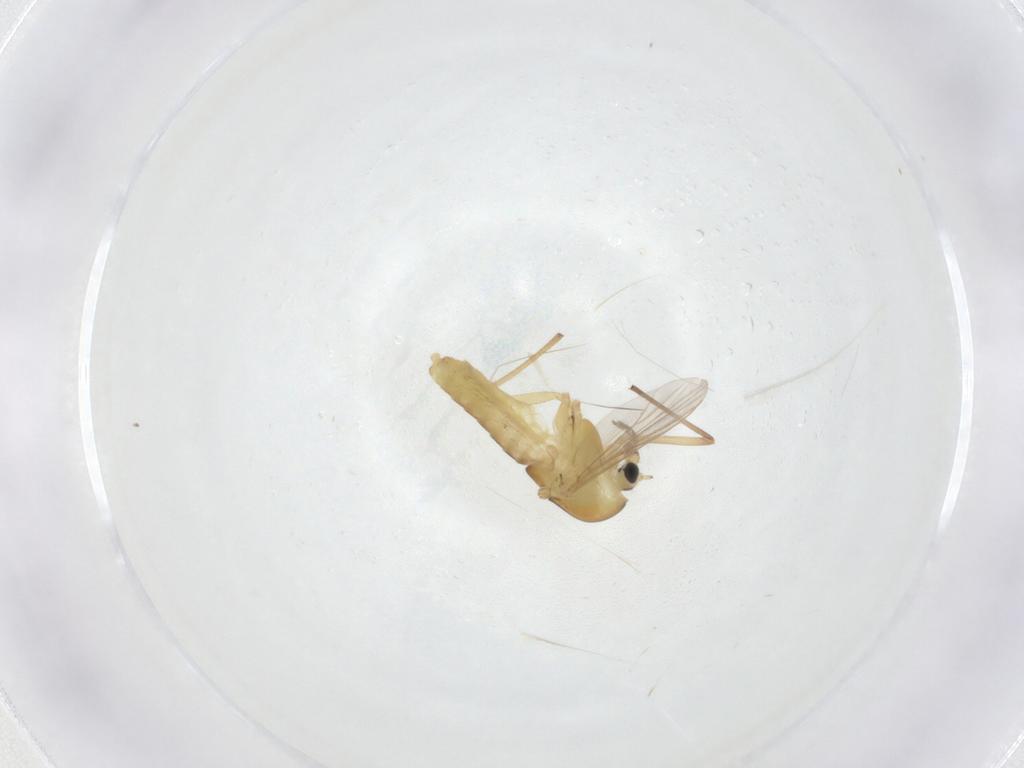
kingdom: Animalia
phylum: Arthropoda
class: Insecta
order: Diptera
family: Chironomidae
